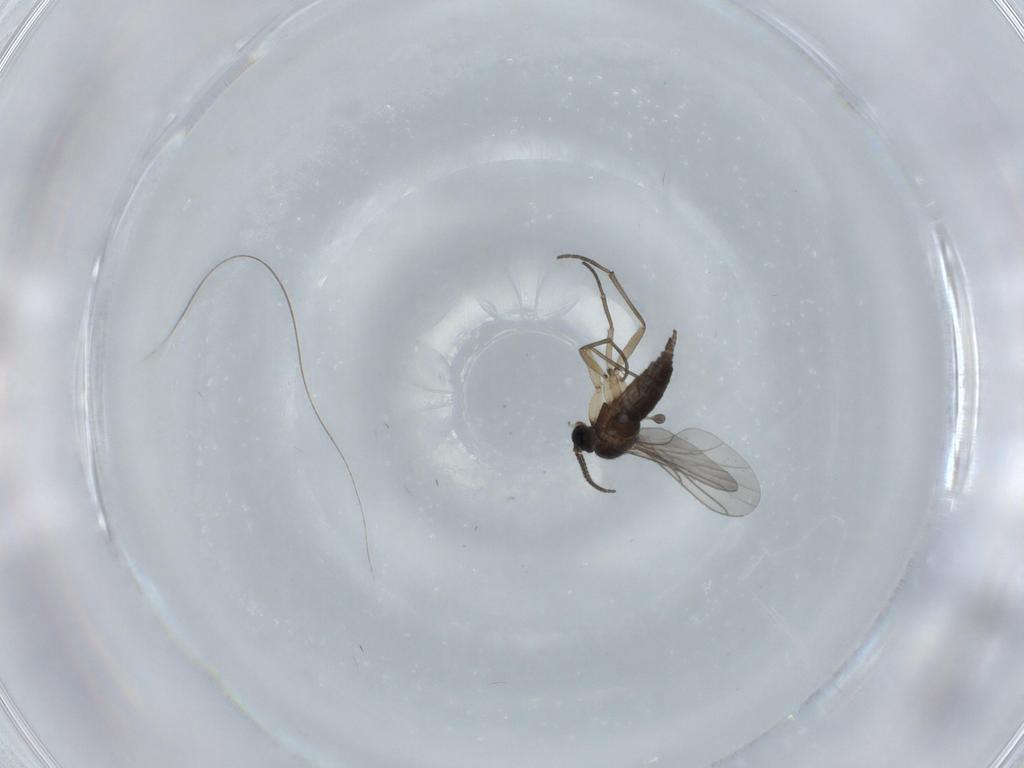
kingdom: Animalia
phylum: Arthropoda
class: Insecta
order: Diptera
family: Sciaridae
